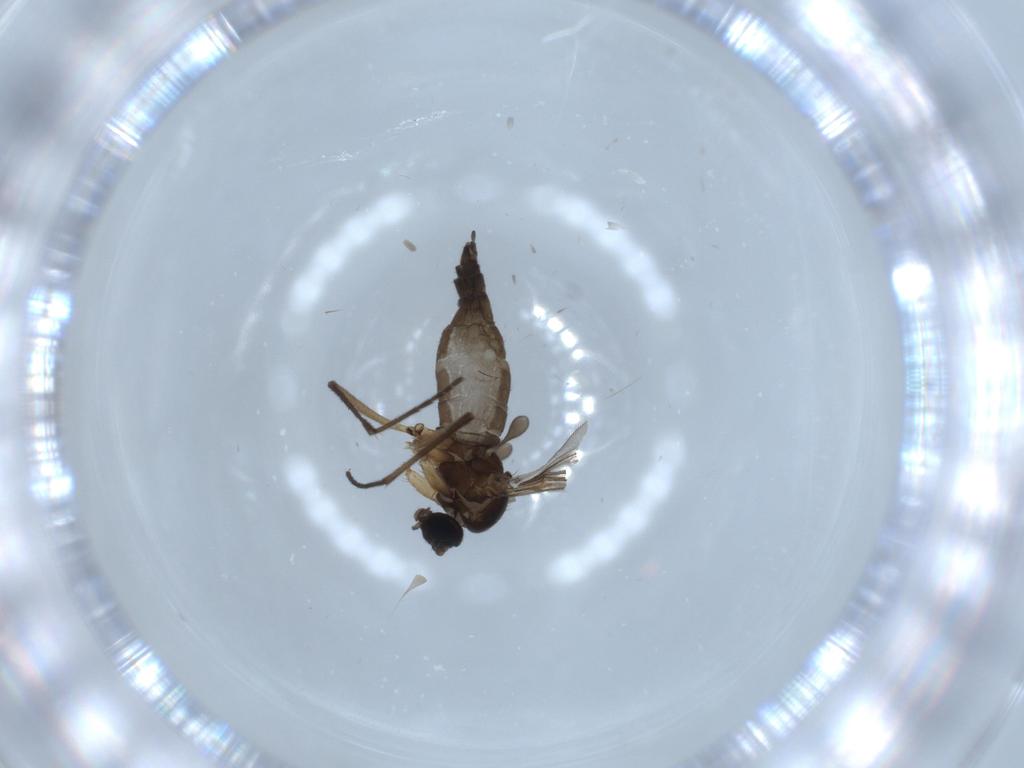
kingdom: Animalia
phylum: Arthropoda
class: Insecta
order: Diptera
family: Sciaridae
